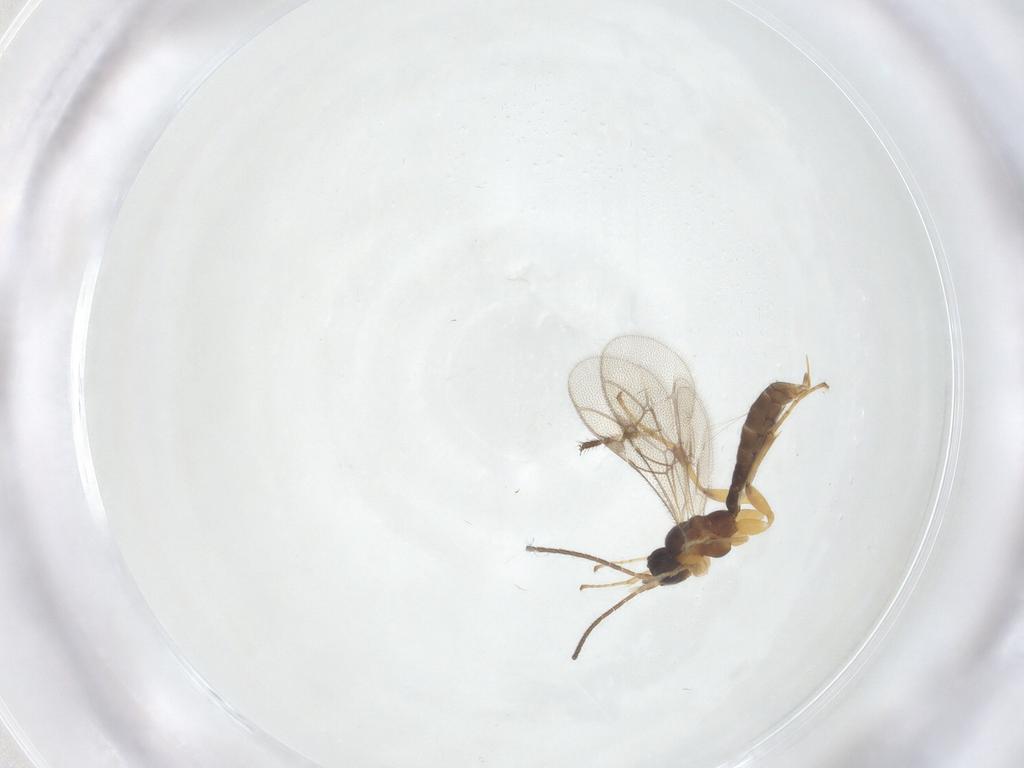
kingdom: Animalia
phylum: Arthropoda
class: Insecta
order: Hymenoptera
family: Ichneumonidae
